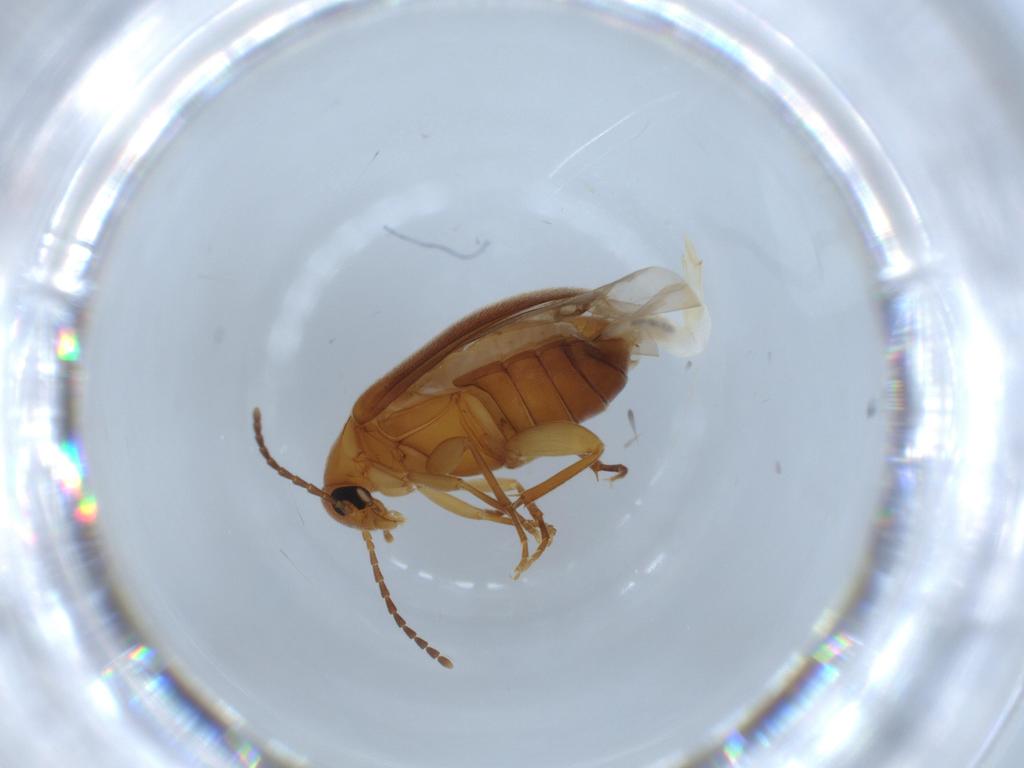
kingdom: Animalia
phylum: Arthropoda
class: Insecta
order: Coleoptera
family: Scraptiidae
